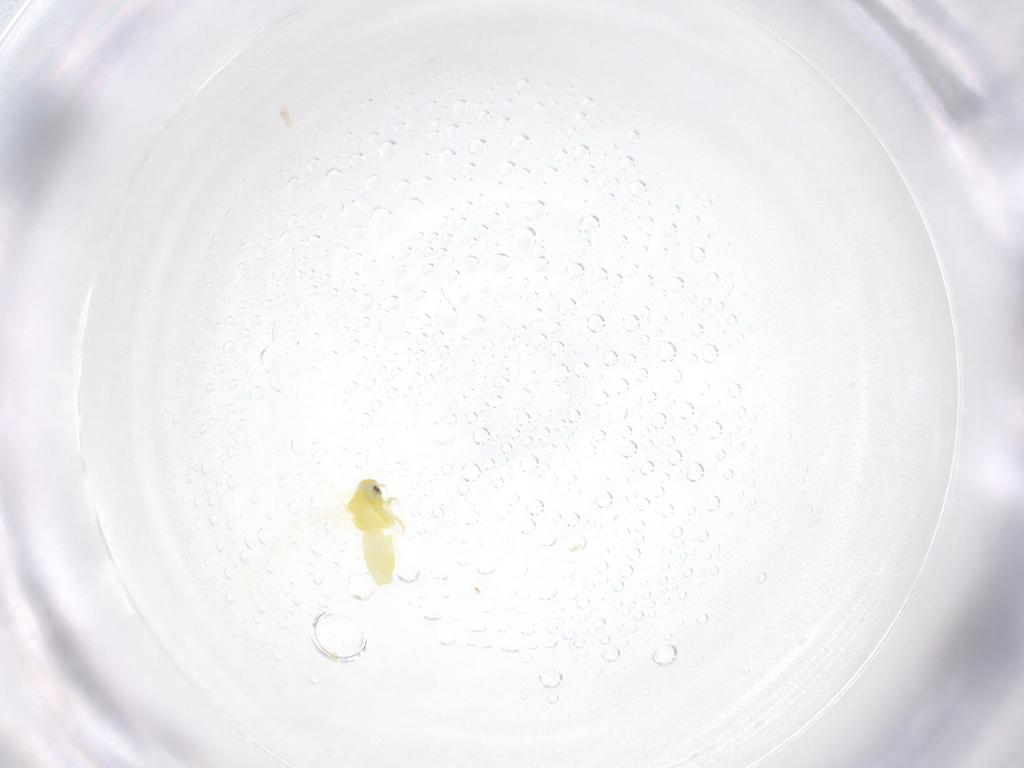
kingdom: Animalia
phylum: Arthropoda
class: Insecta
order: Hemiptera
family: Aleyrodidae
